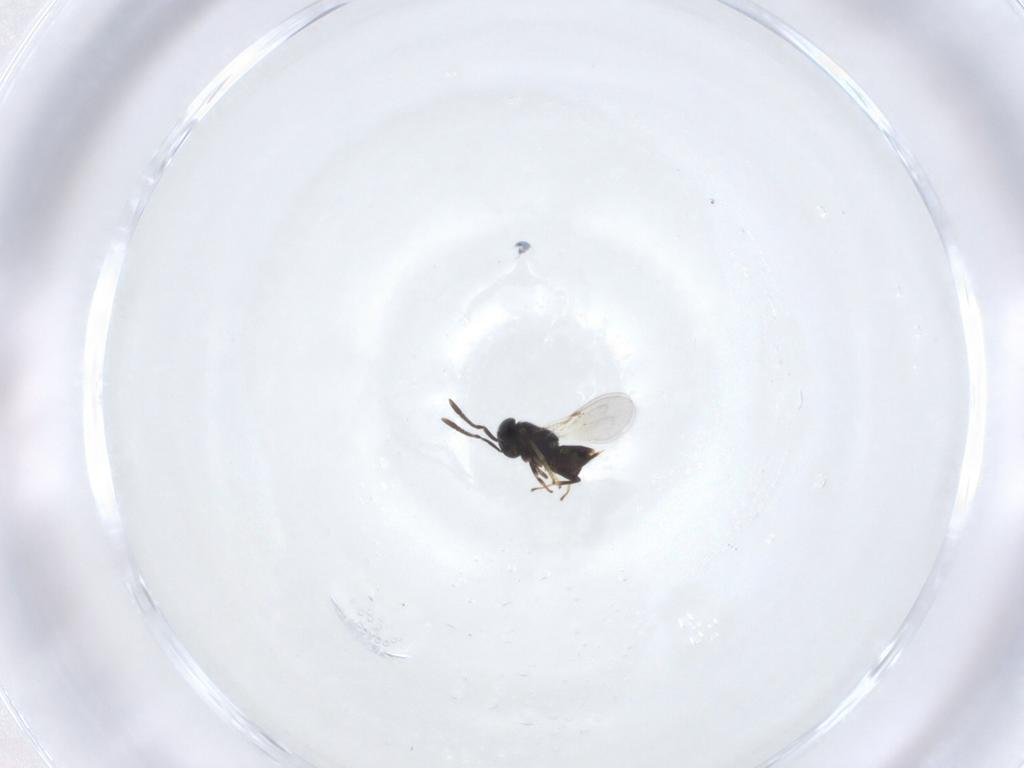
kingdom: Animalia
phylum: Arthropoda
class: Insecta
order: Hymenoptera
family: Encyrtidae
